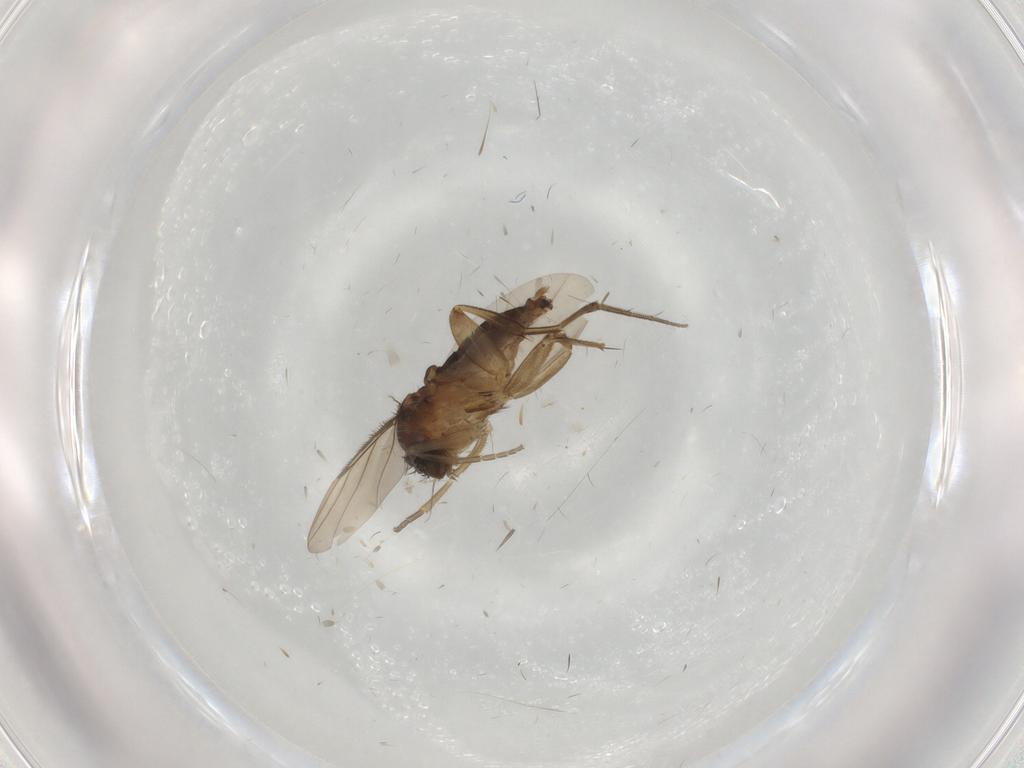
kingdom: Animalia
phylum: Arthropoda
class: Insecta
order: Diptera
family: Phoridae
